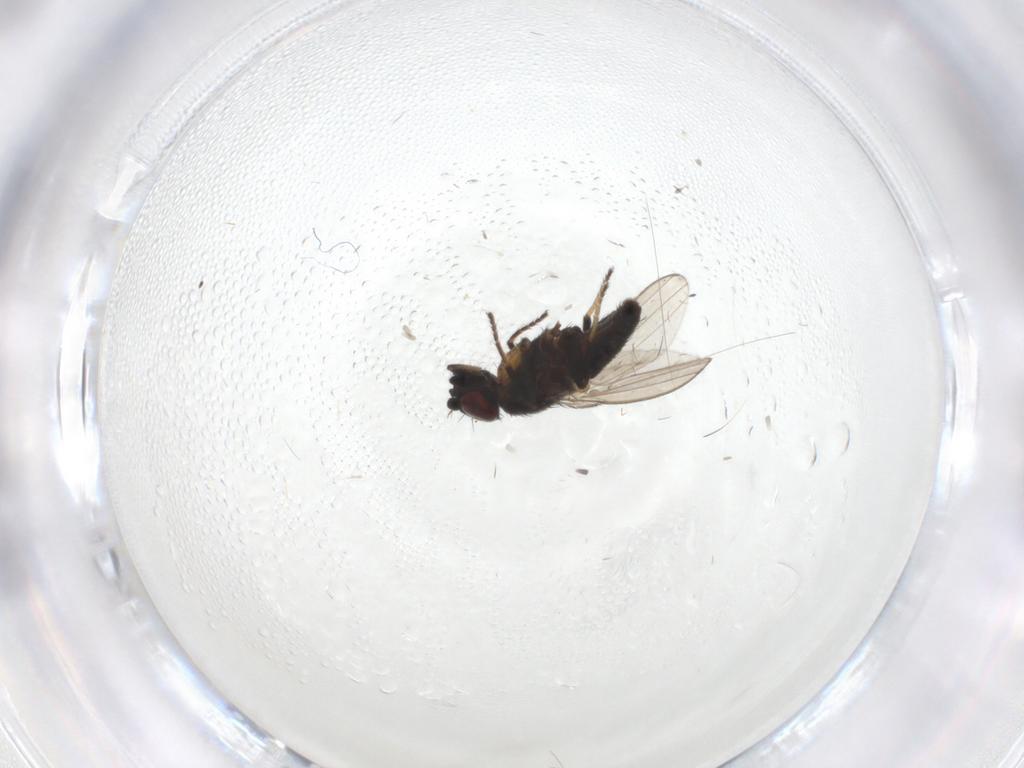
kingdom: Animalia
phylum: Arthropoda
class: Insecta
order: Diptera
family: Milichiidae
